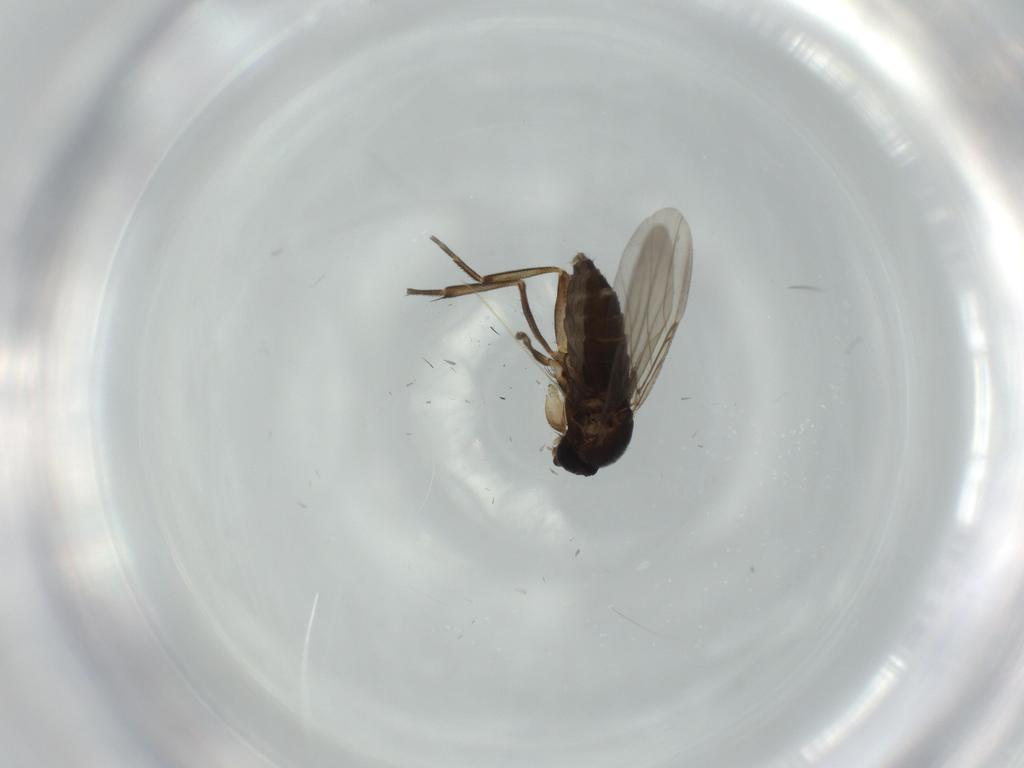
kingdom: Animalia
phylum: Arthropoda
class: Insecta
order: Diptera
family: Phoridae
